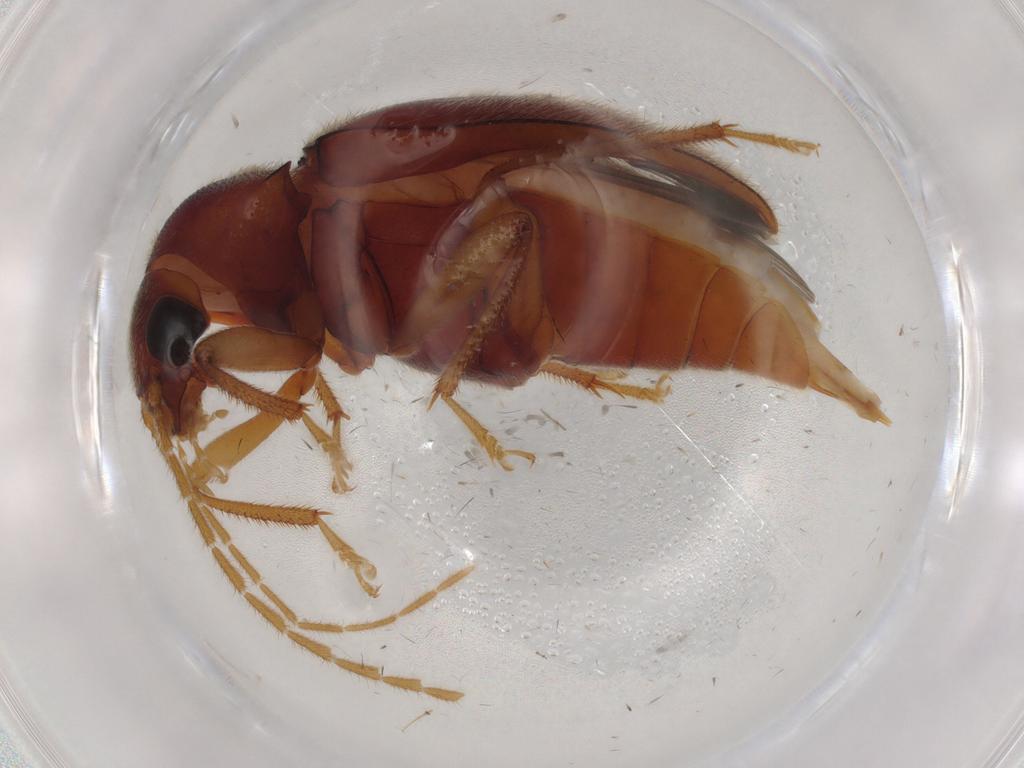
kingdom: Animalia
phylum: Arthropoda
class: Insecta
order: Coleoptera
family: Ptilodactylidae
